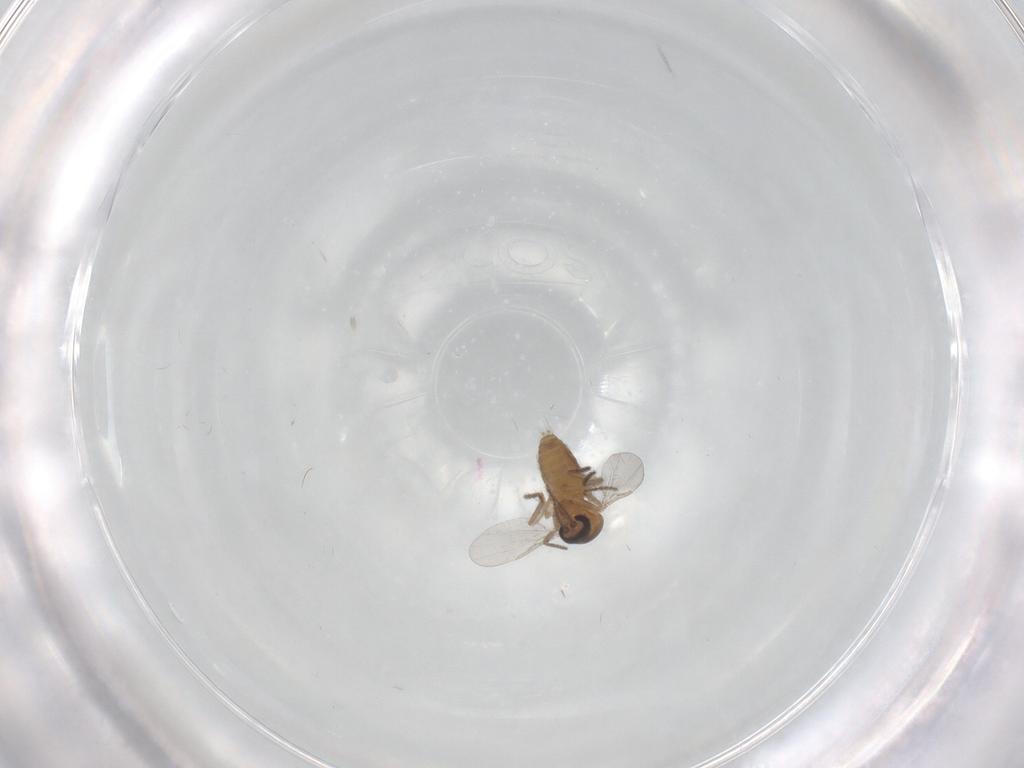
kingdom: Animalia
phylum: Arthropoda
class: Insecta
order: Diptera
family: Ceratopogonidae
